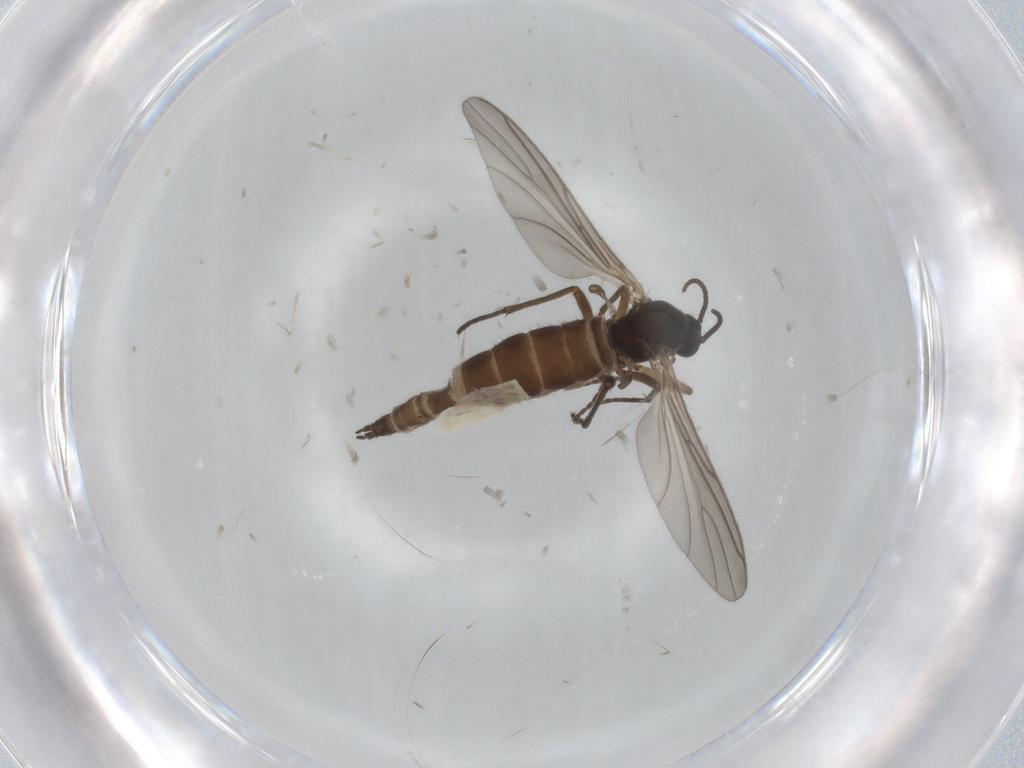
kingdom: Animalia
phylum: Arthropoda
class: Insecta
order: Diptera
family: Sciaridae
